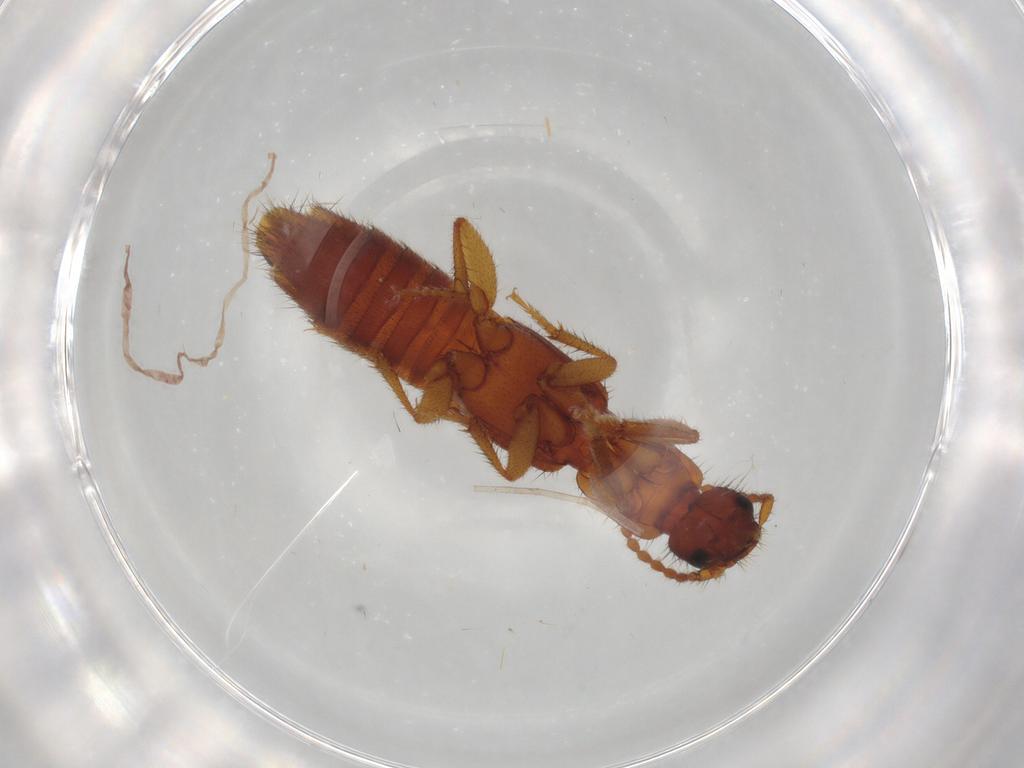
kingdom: Animalia
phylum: Arthropoda
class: Insecta
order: Coleoptera
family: Staphylinidae
